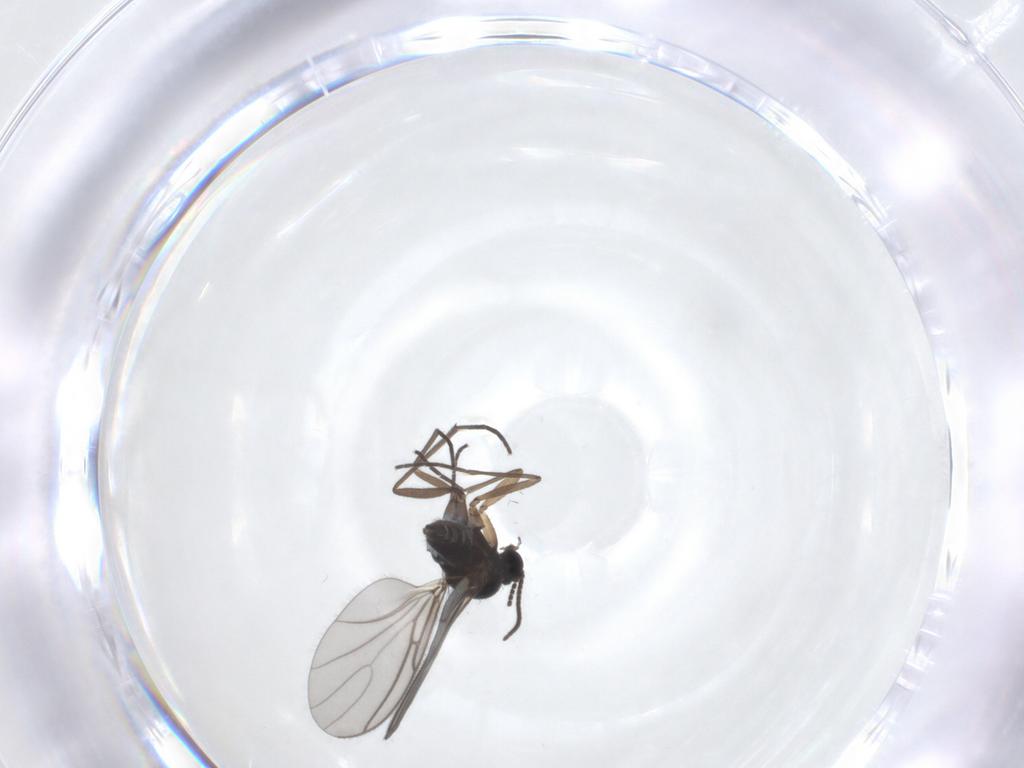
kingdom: Animalia
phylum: Arthropoda
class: Insecta
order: Diptera
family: Sciaridae
